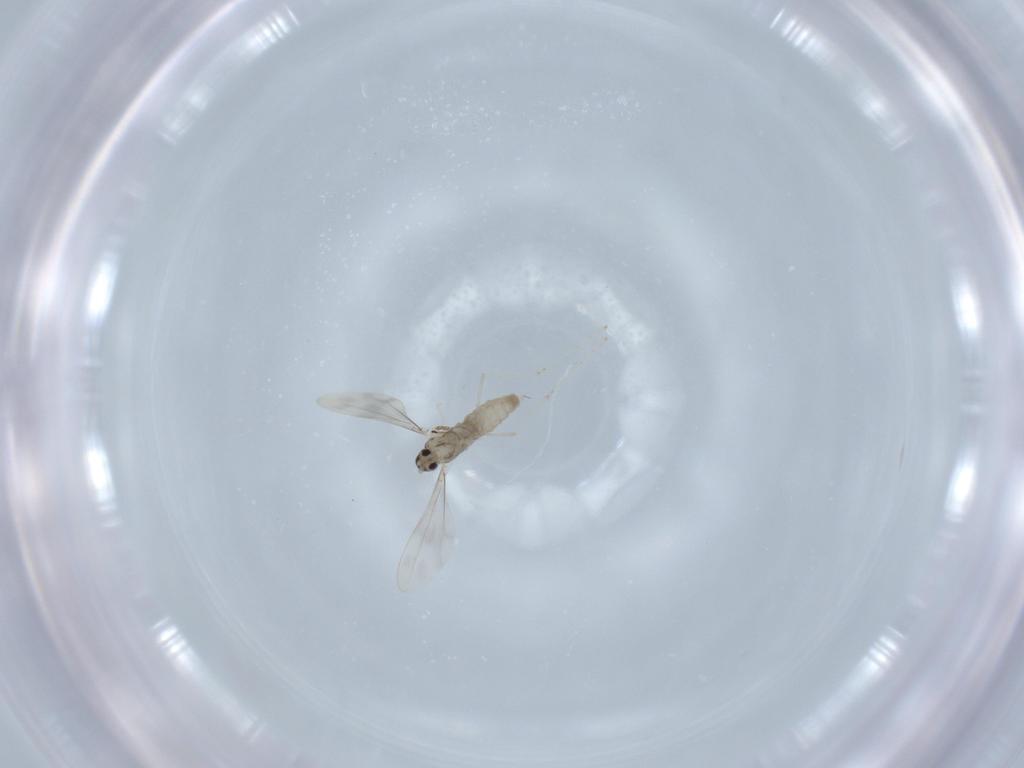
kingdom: Animalia
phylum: Arthropoda
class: Insecta
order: Diptera
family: Cecidomyiidae
